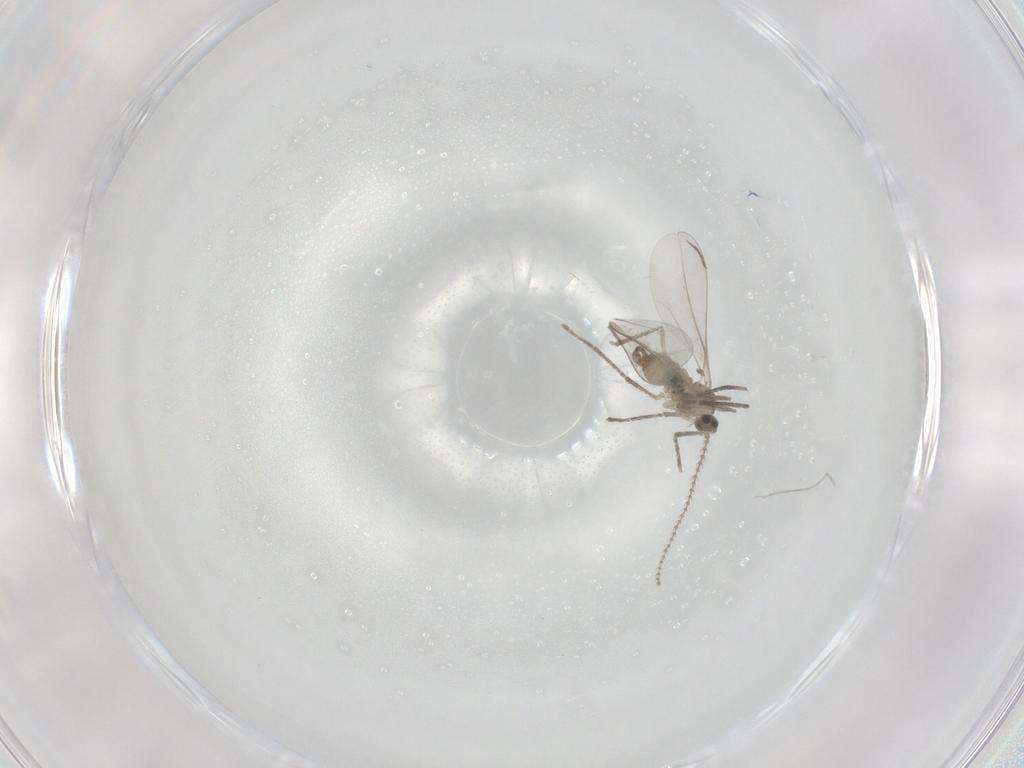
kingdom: Animalia
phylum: Arthropoda
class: Insecta
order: Diptera
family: Cecidomyiidae
